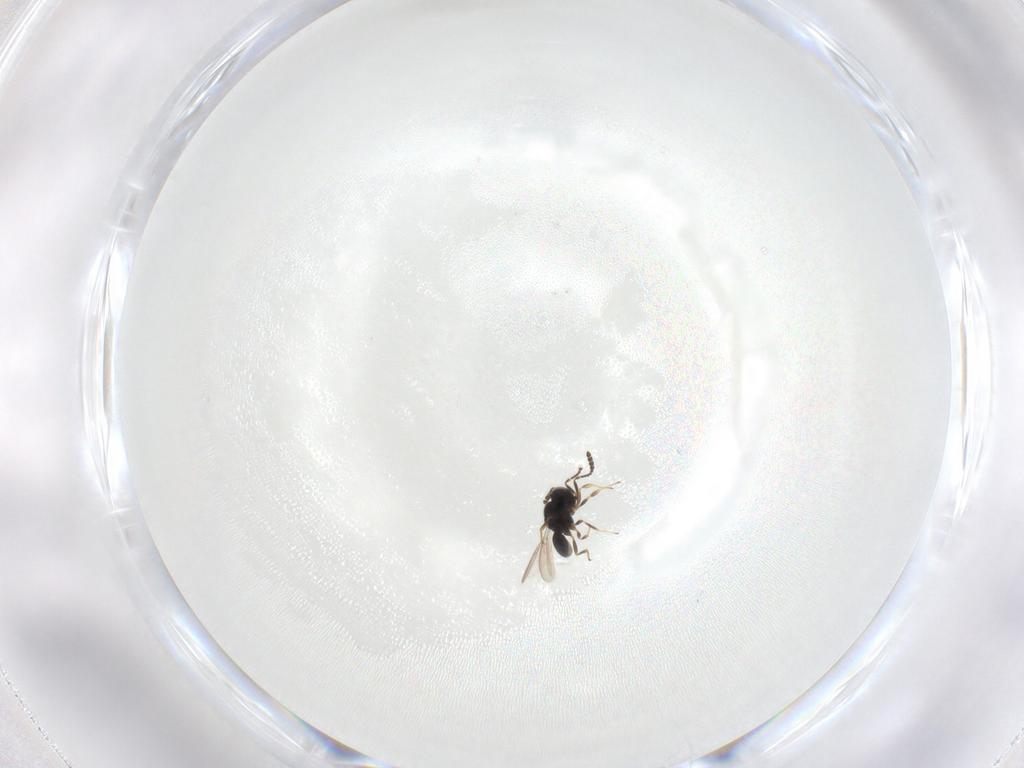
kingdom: Animalia
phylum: Arthropoda
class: Insecta
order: Hymenoptera
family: Scelionidae
